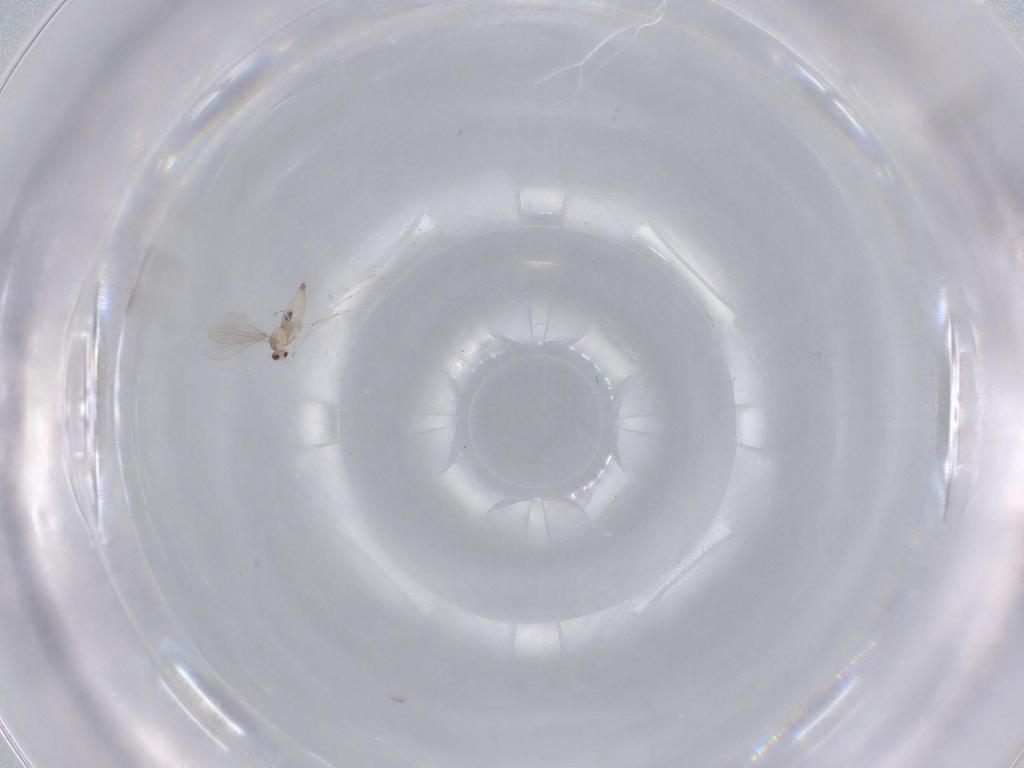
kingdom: Animalia
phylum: Arthropoda
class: Insecta
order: Diptera
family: Cecidomyiidae
